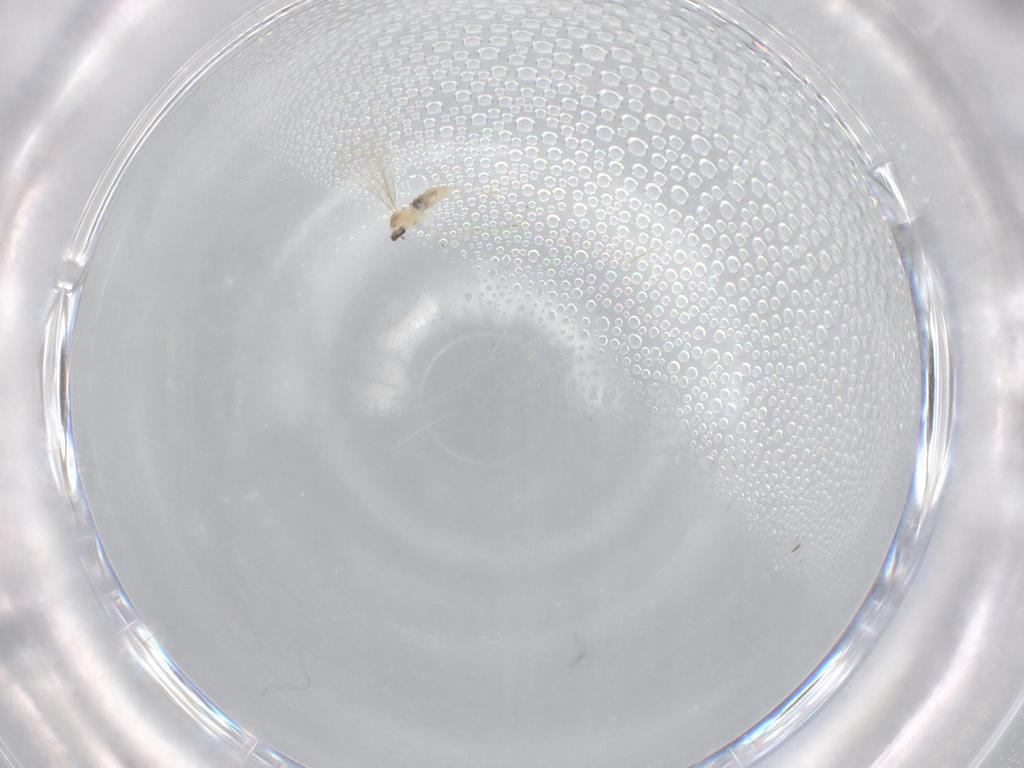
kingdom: Animalia
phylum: Arthropoda
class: Insecta
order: Diptera
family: Cecidomyiidae
